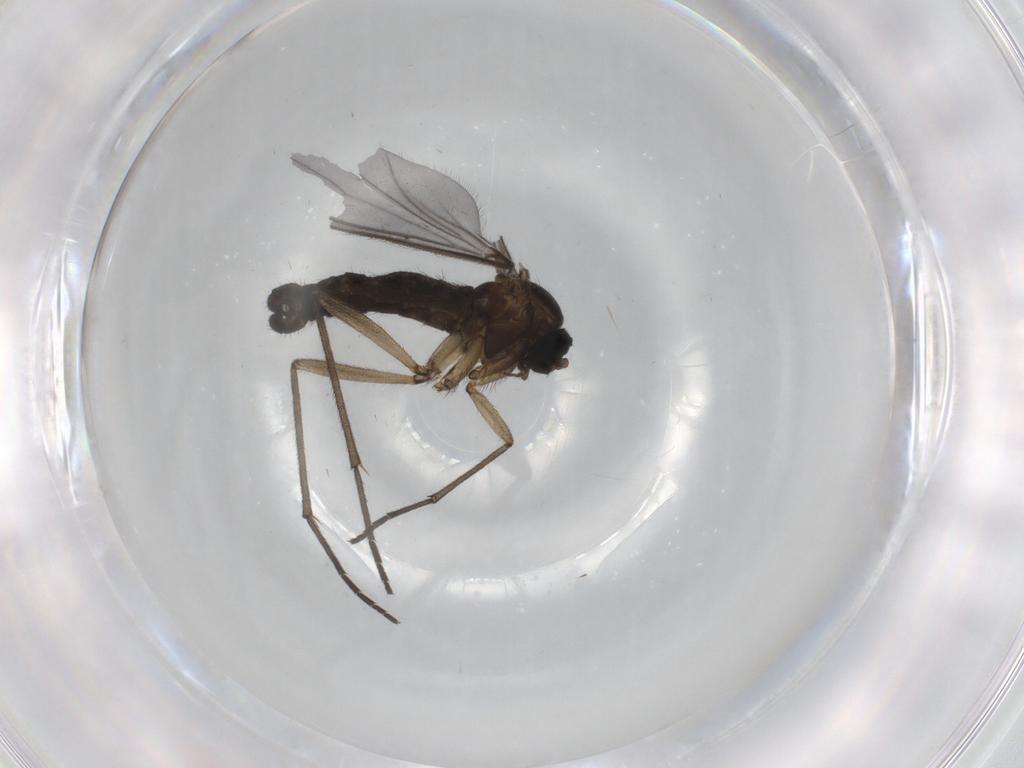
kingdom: Animalia
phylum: Arthropoda
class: Insecta
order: Diptera
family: Sciaridae
